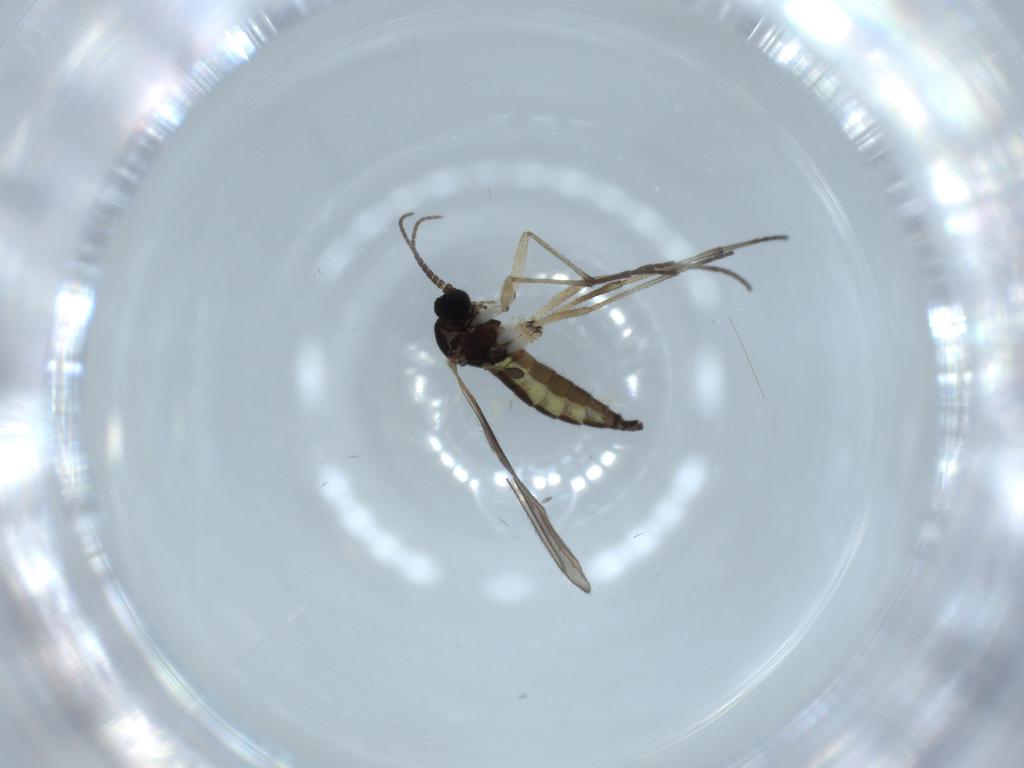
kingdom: Animalia
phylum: Arthropoda
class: Insecta
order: Diptera
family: Sciaridae
